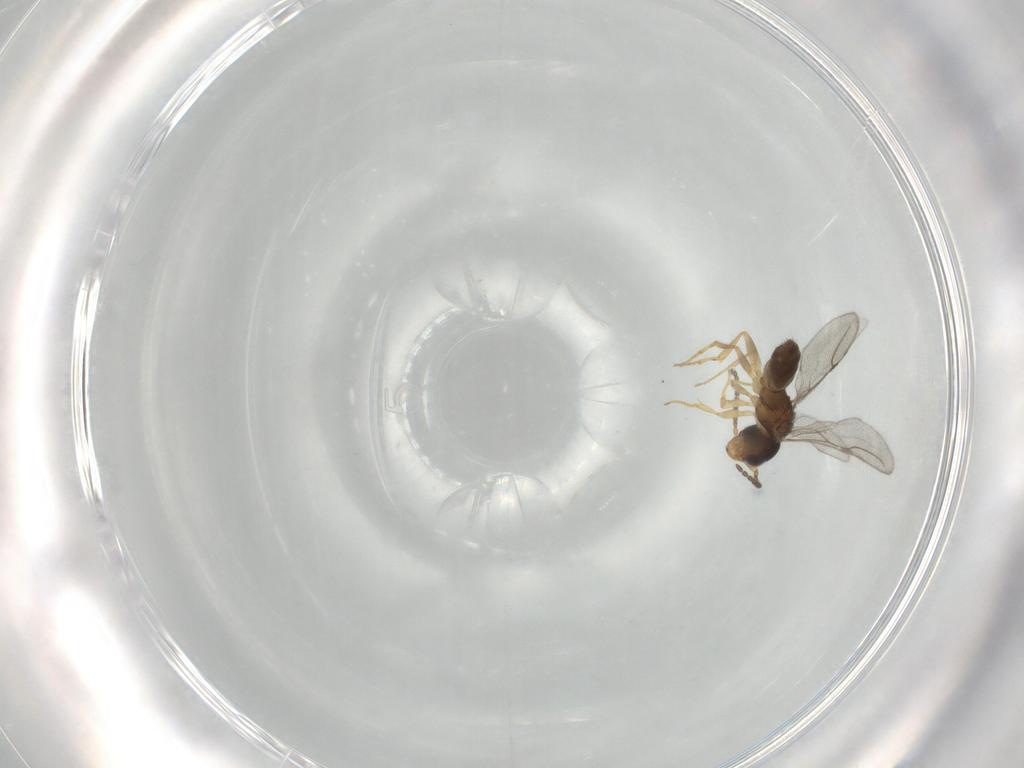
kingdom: Animalia
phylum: Arthropoda
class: Insecta
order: Hymenoptera
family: Bethylidae
